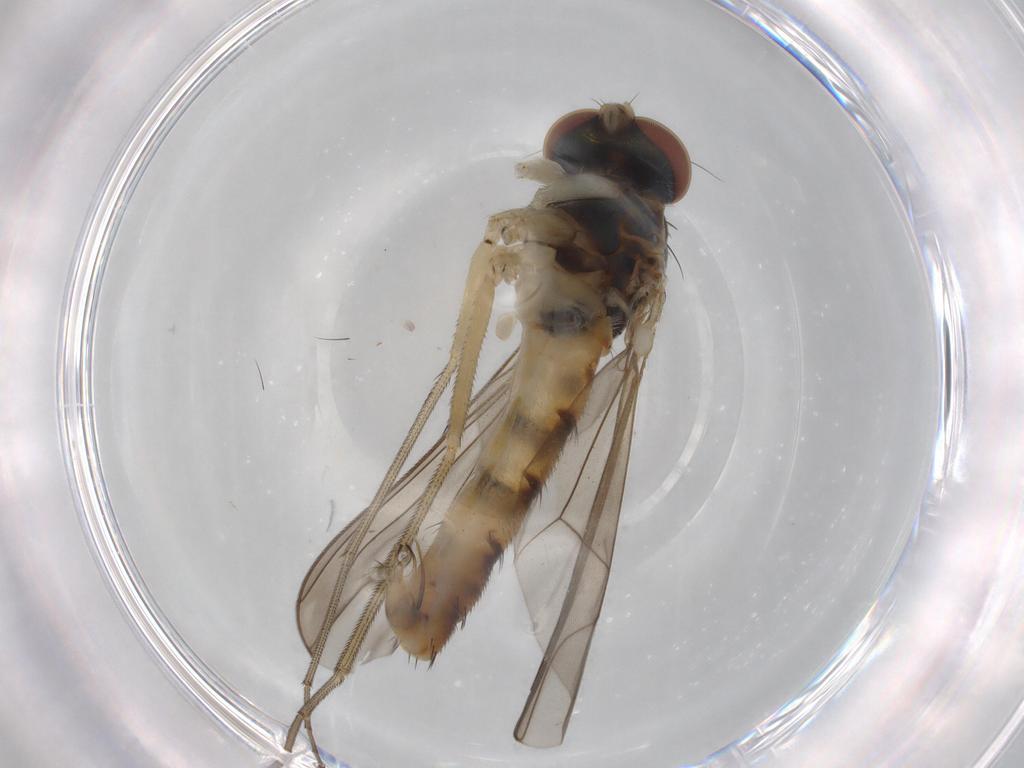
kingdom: Animalia
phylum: Arthropoda
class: Insecta
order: Diptera
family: Dolichopodidae
